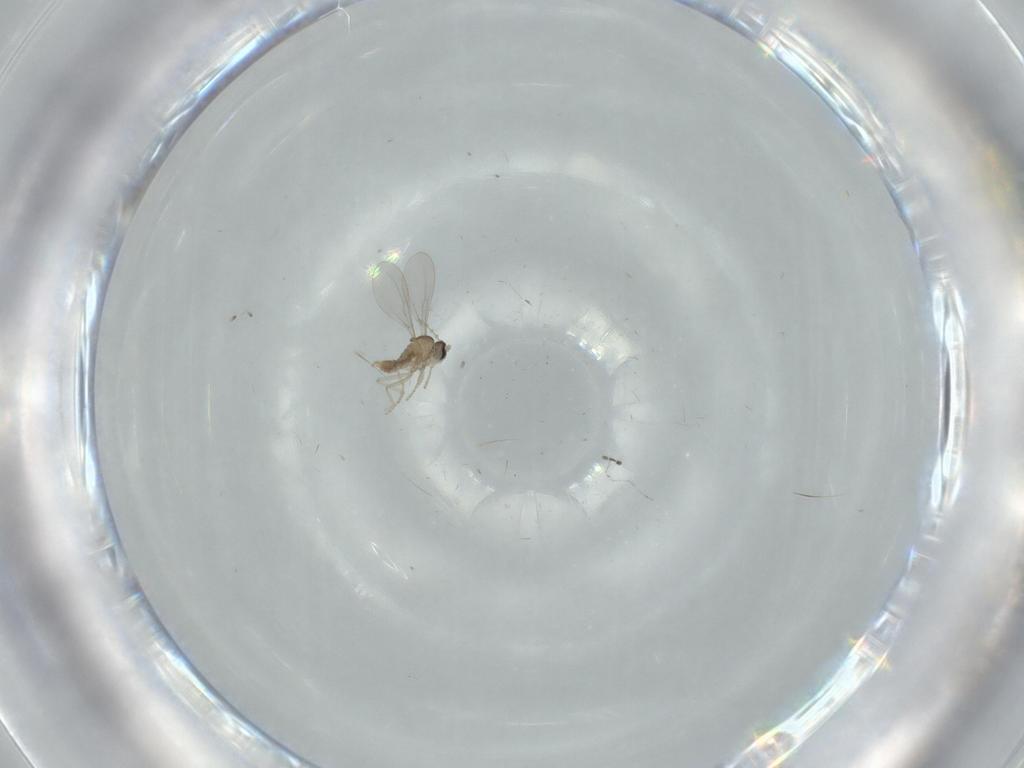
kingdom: Animalia
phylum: Arthropoda
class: Insecta
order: Diptera
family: Sciaridae
